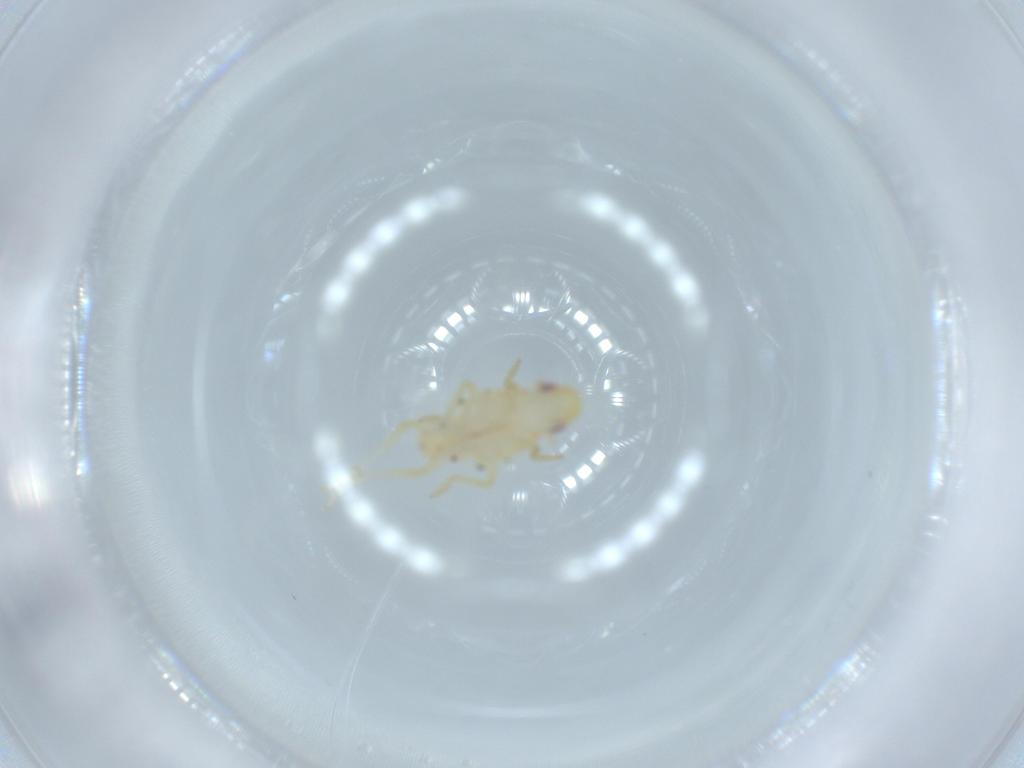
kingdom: Animalia
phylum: Arthropoda
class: Insecta
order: Hemiptera
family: Tropiduchidae
